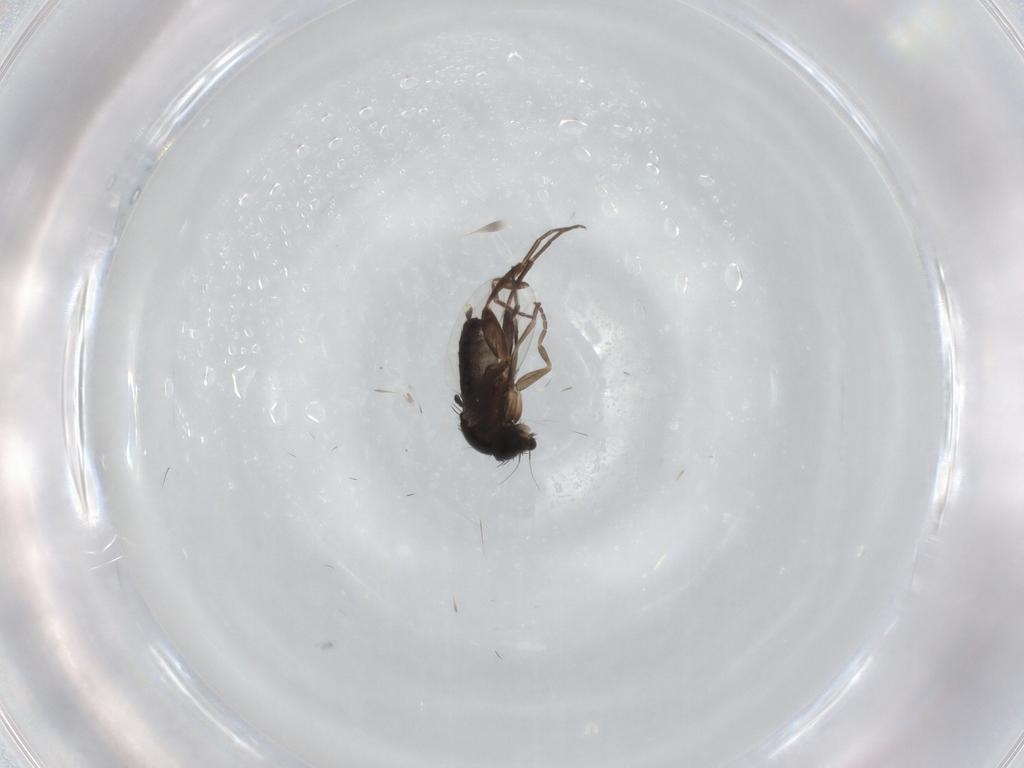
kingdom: Animalia
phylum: Arthropoda
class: Insecta
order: Diptera
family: Phoridae
